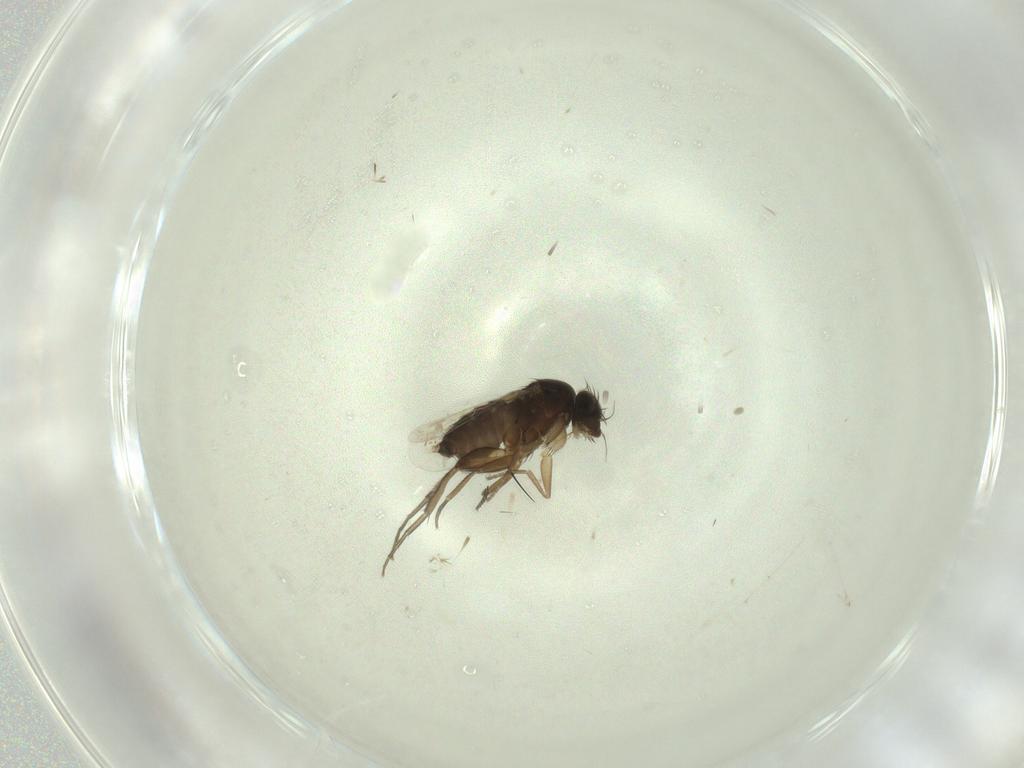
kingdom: Animalia
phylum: Arthropoda
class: Insecta
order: Diptera
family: Phoridae
